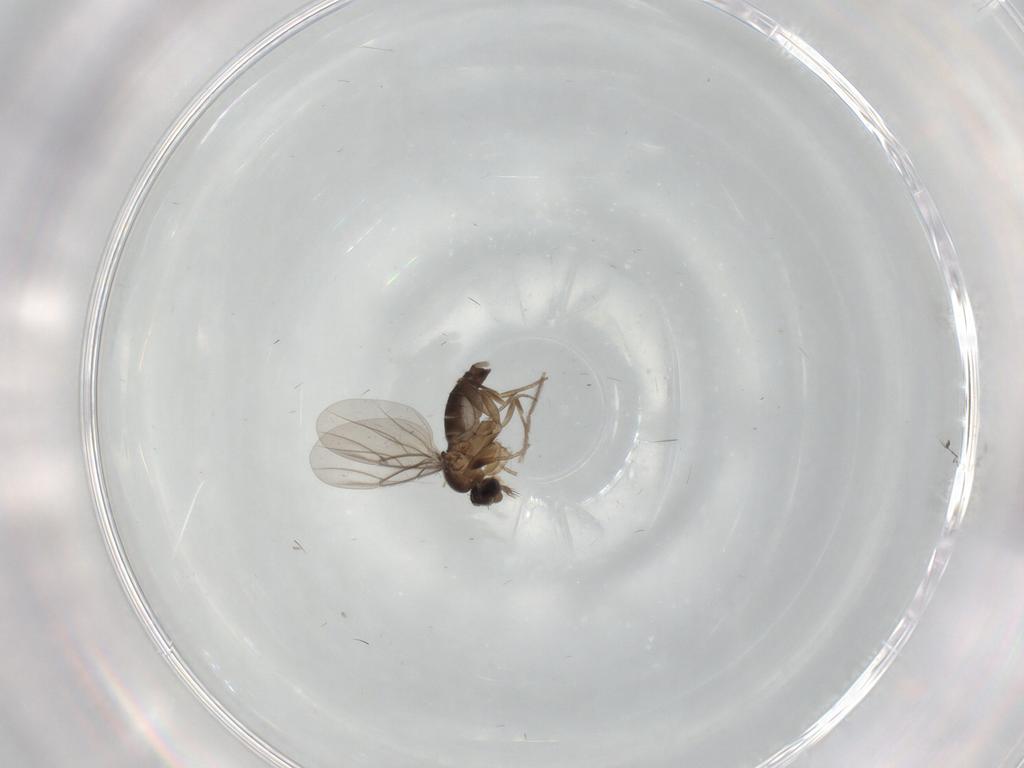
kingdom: Animalia
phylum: Arthropoda
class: Insecta
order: Diptera
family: Phoridae
